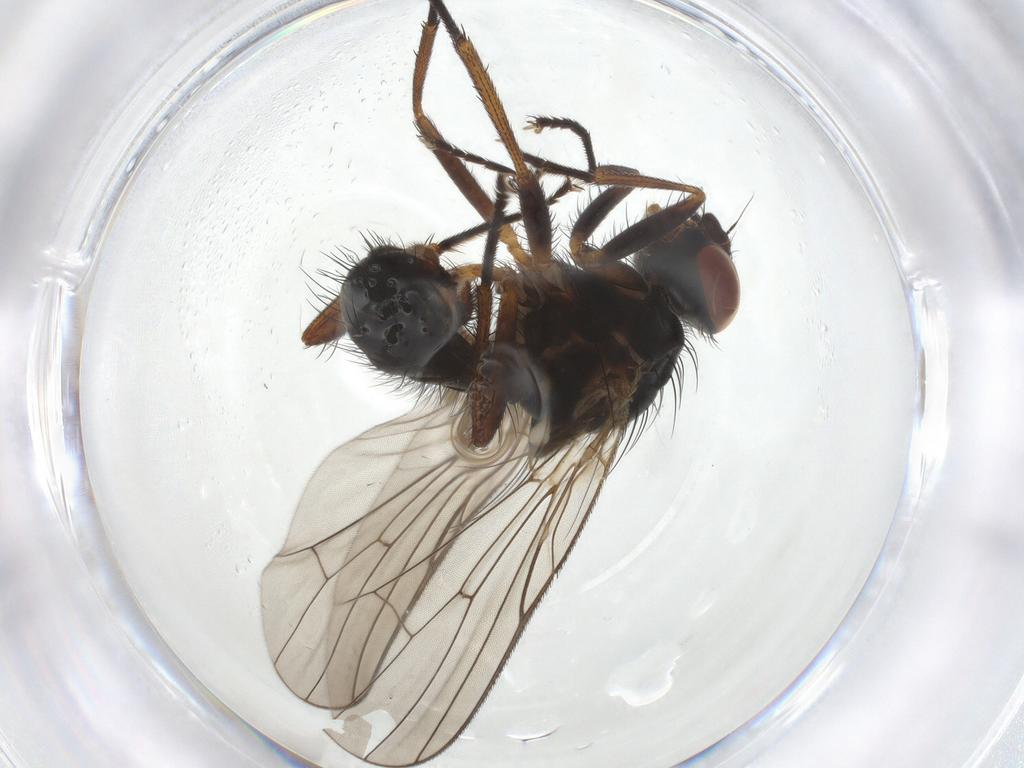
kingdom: Animalia
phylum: Arthropoda
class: Insecta
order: Diptera
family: Anthomyiidae
